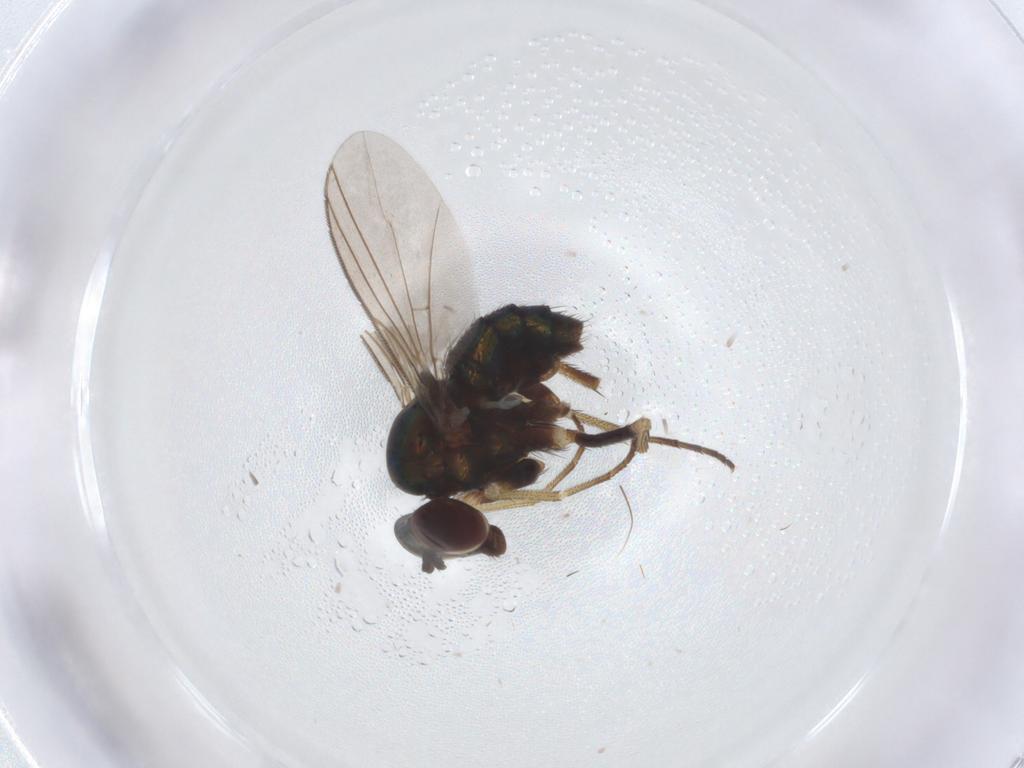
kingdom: Animalia
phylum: Arthropoda
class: Insecta
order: Diptera
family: Dolichopodidae
